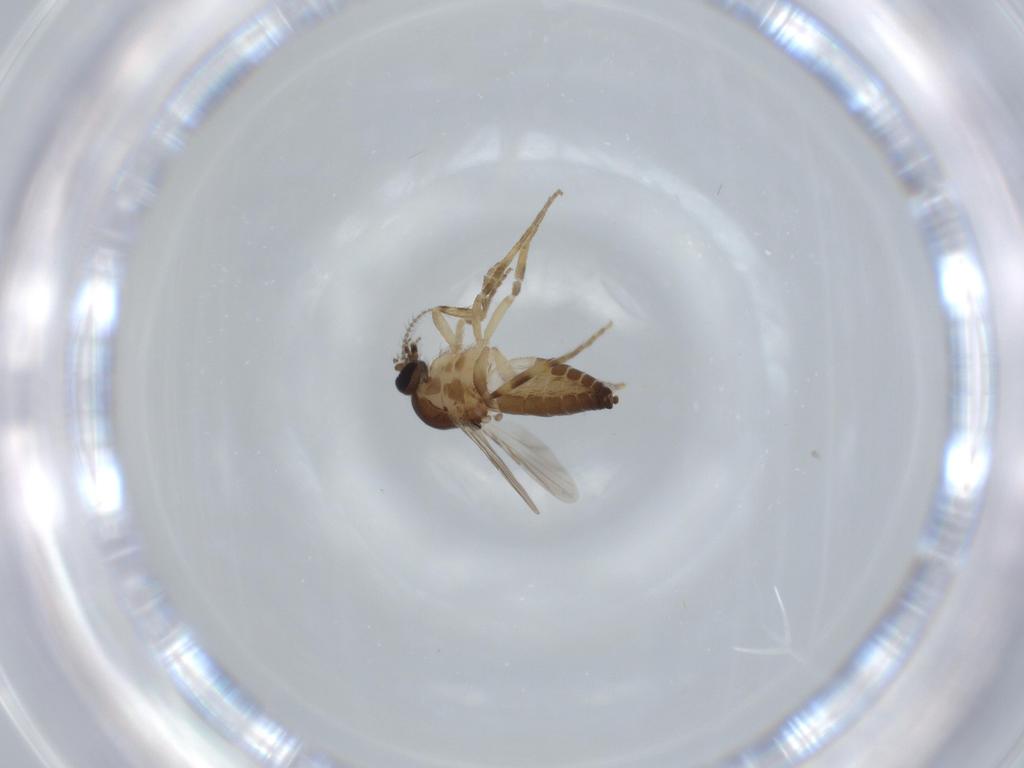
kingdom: Animalia
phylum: Arthropoda
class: Insecta
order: Diptera
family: Ceratopogonidae
